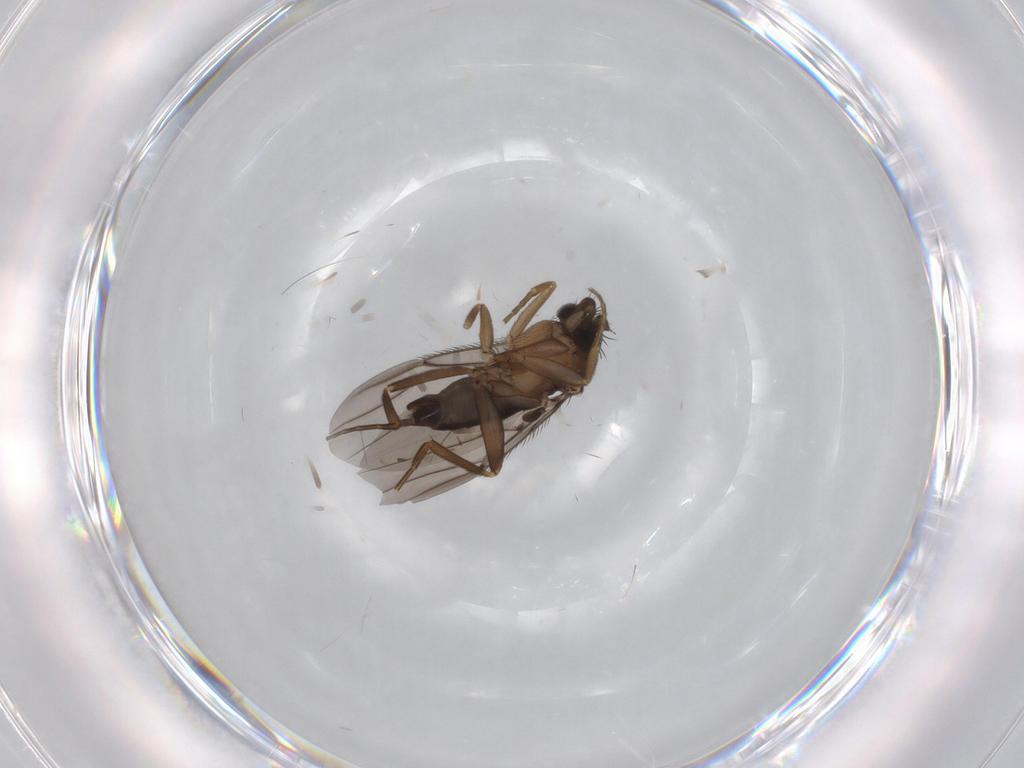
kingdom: Animalia
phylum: Arthropoda
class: Insecta
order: Diptera
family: Phoridae
